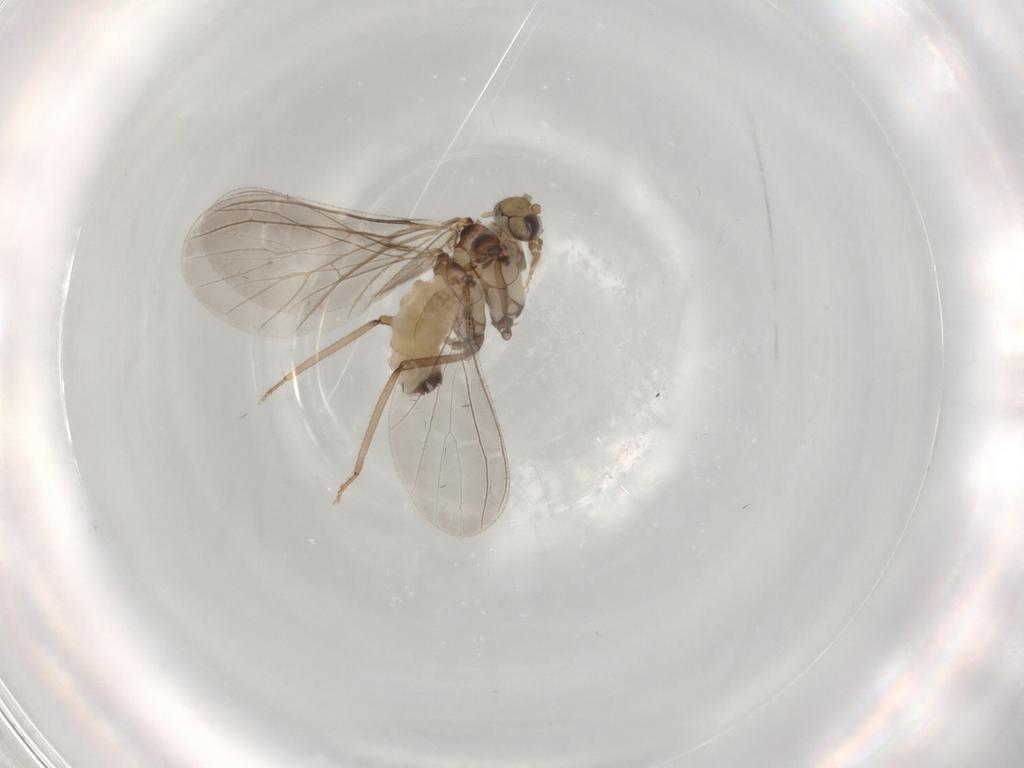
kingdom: Animalia
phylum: Arthropoda
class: Insecta
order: Neuroptera
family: Coniopterygidae
